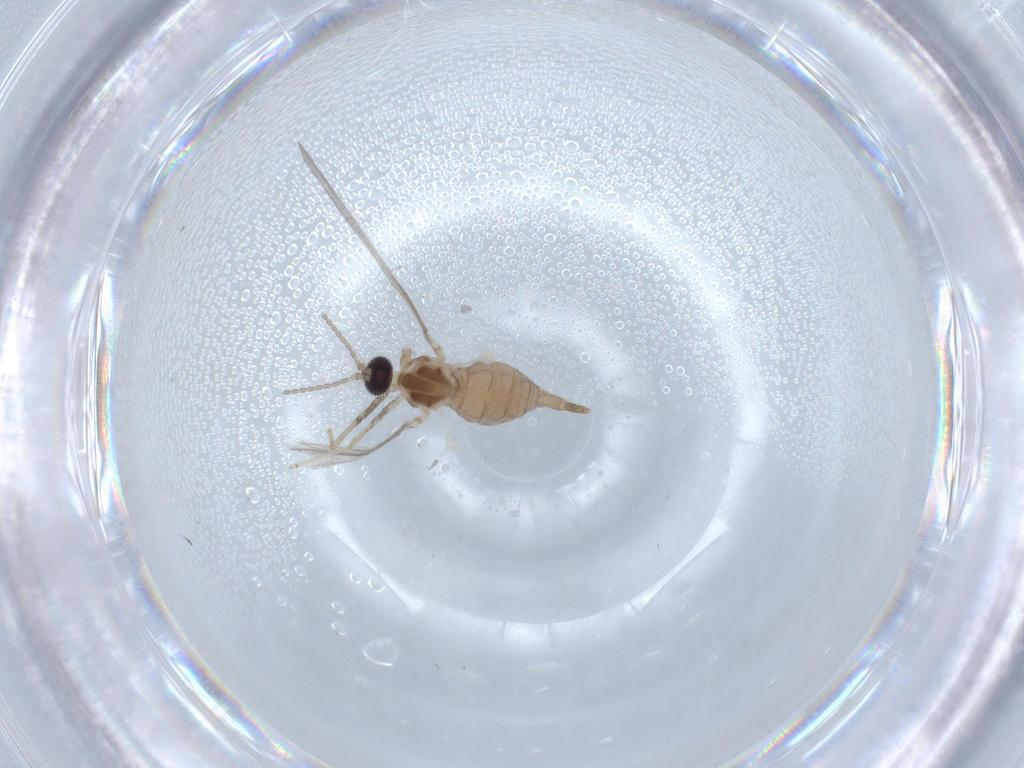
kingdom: Animalia
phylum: Arthropoda
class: Insecta
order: Diptera
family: Cecidomyiidae
